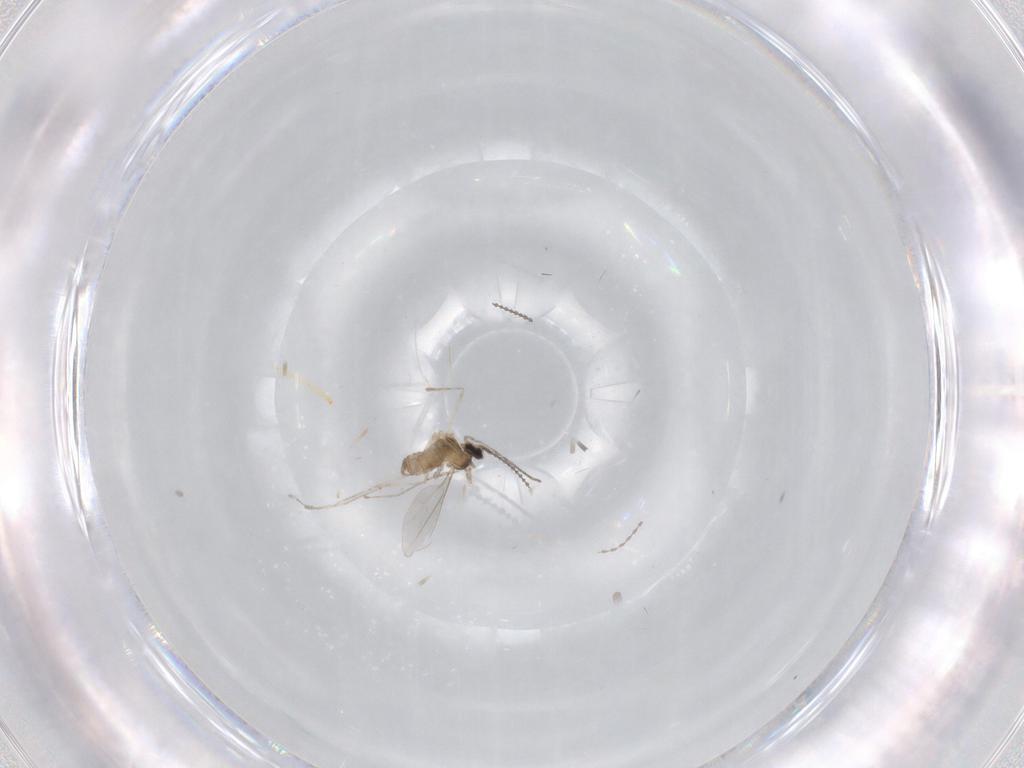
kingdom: Animalia
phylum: Arthropoda
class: Insecta
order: Diptera
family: Cecidomyiidae
